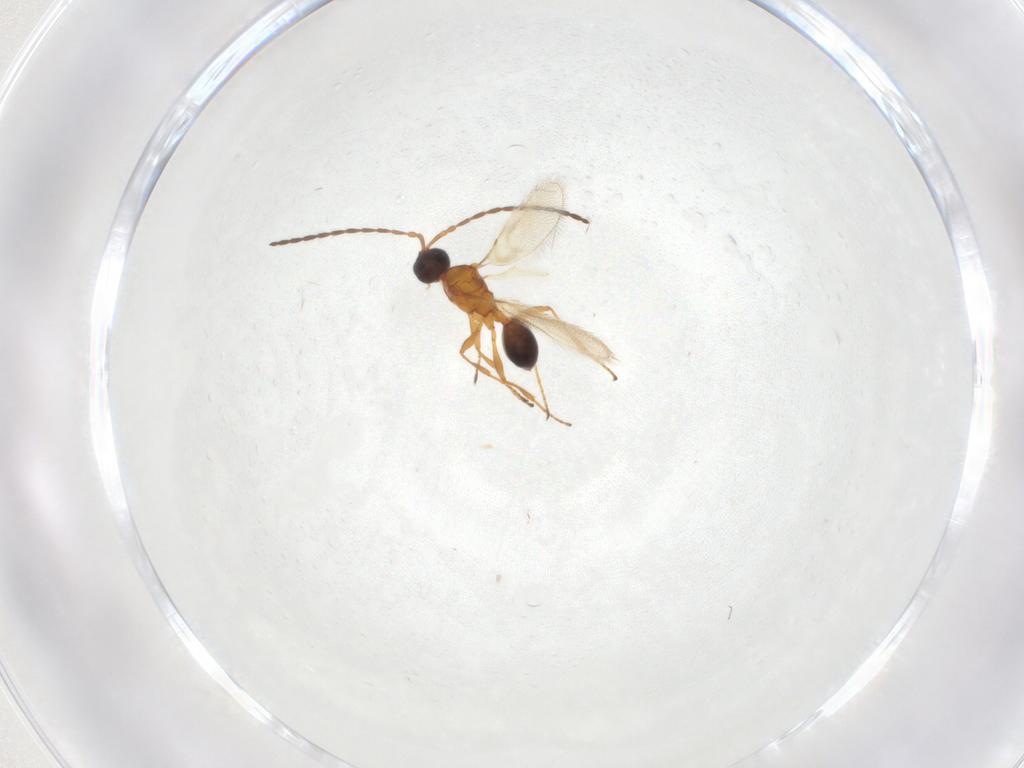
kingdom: Animalia
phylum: Arthropoda
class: Insecta
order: Hymenoptera
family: Diapriidae
